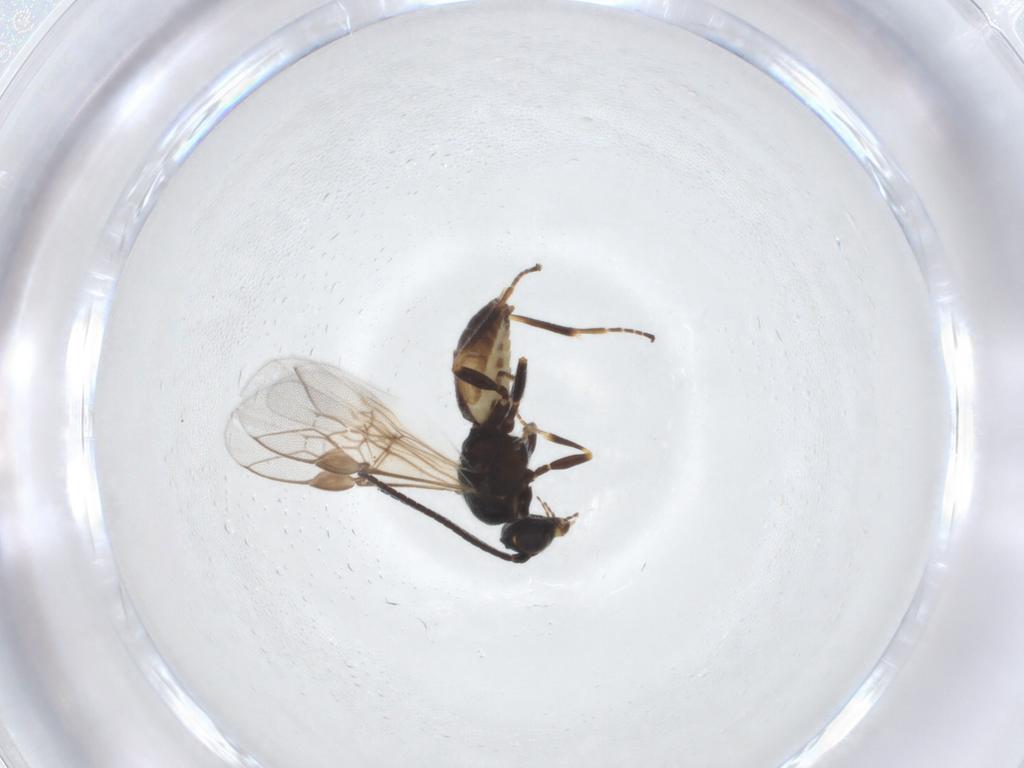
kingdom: Animalia
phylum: Arthropoda
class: Insecta
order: Hymenoptera
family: Braconidae
